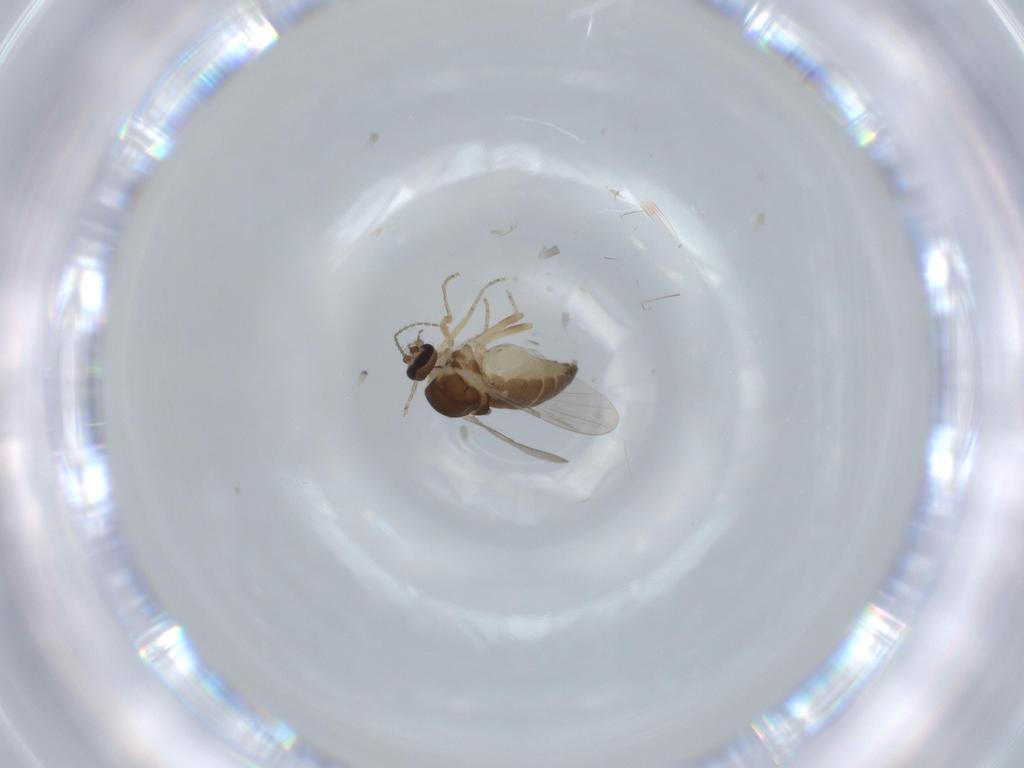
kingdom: Animalia
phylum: Arthropoda
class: Insecta
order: Diptera
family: Ceratopogonidae
